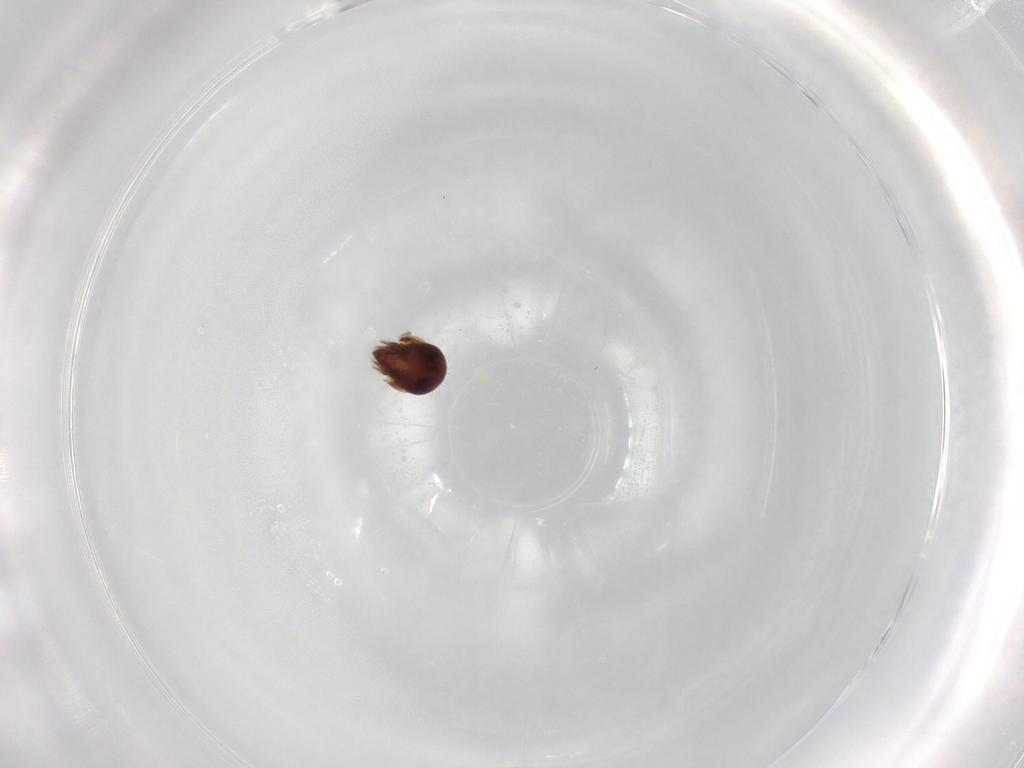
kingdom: Animalia
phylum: Arthropoda
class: Arachnida
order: Sarcoptiformes
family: Ceratozetidae
